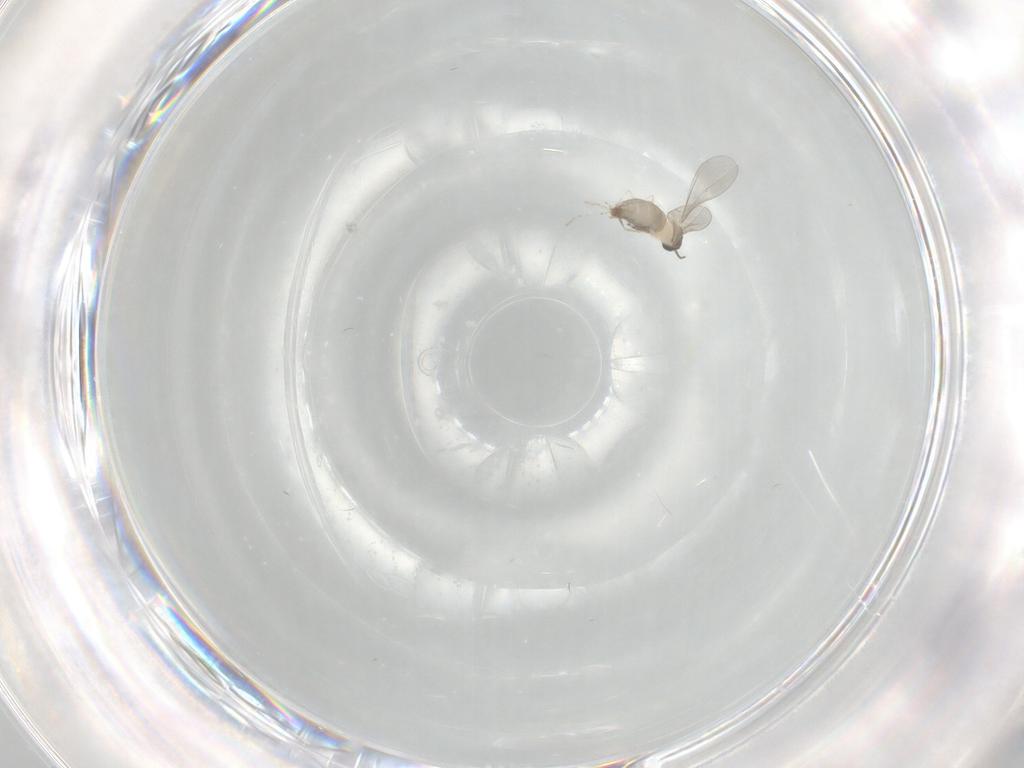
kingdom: Animalia
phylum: Arthropoda
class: Insecta
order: Diptera
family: Cecidomyiidae
